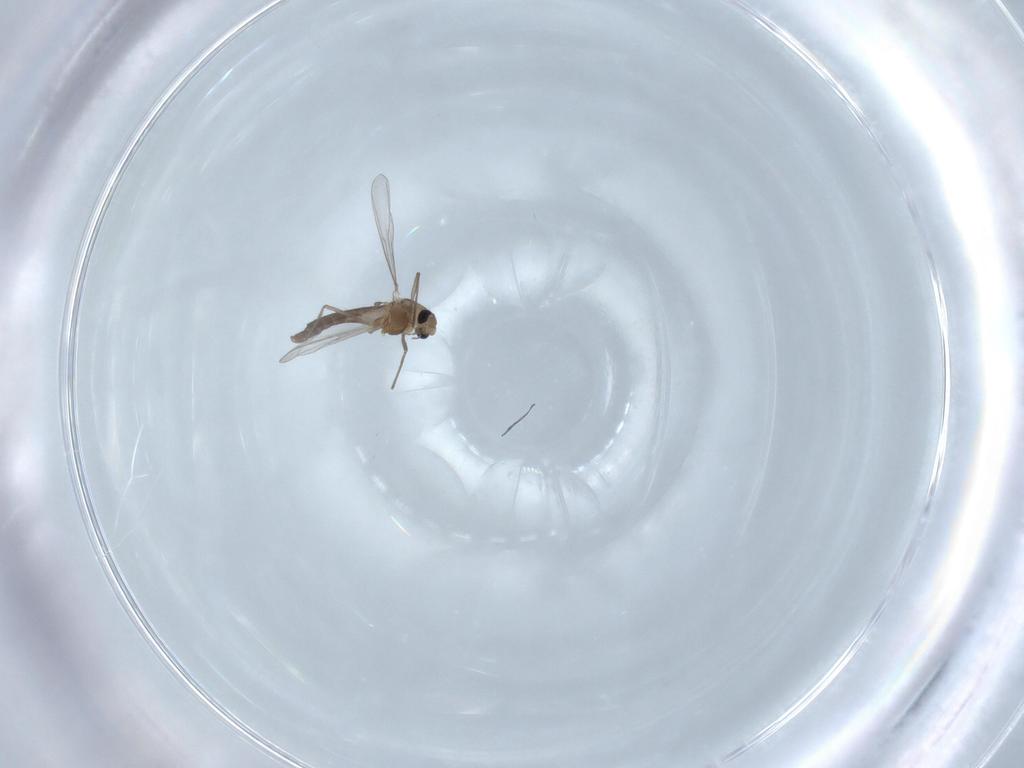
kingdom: Animalia
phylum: Arthropoda
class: Insecta
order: Diptera
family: Chironomidae
